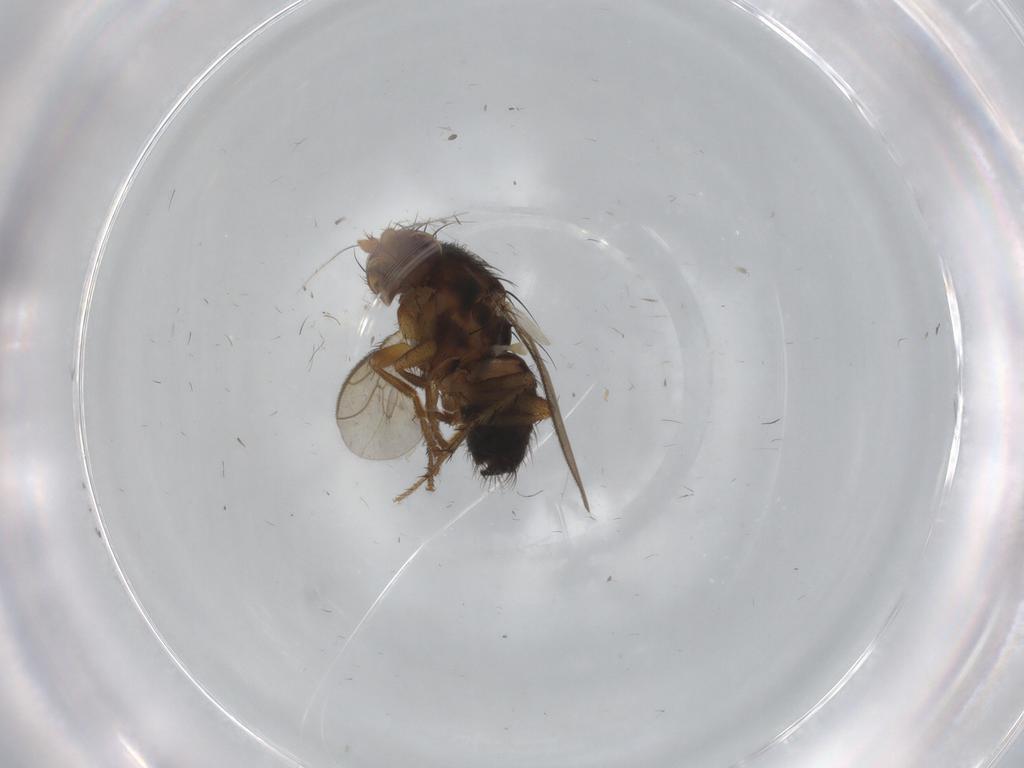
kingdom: Animalia
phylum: Arthropoda
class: Insecta
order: Diptera
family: Sphaeroceridae
